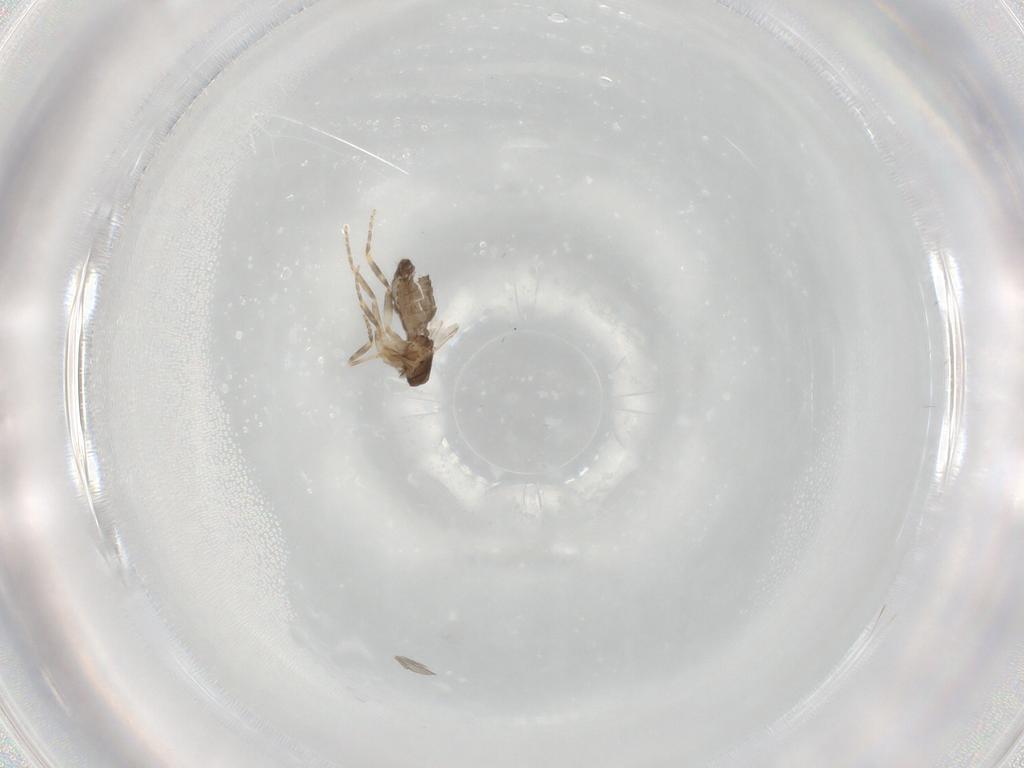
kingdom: Animalia
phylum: Arthropoda
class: Insecta
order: Diptera
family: Ceratopogonidae
